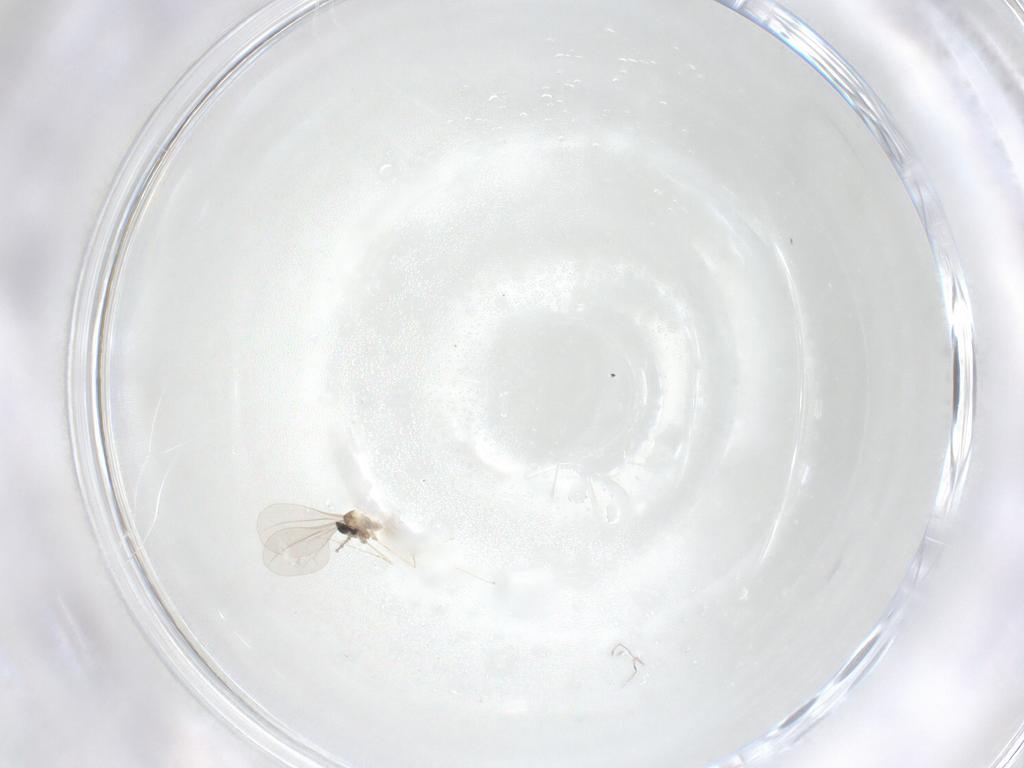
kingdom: Animalia
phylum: Arthropoda
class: Insecta
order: Diptera
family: Cecidomyiidae
